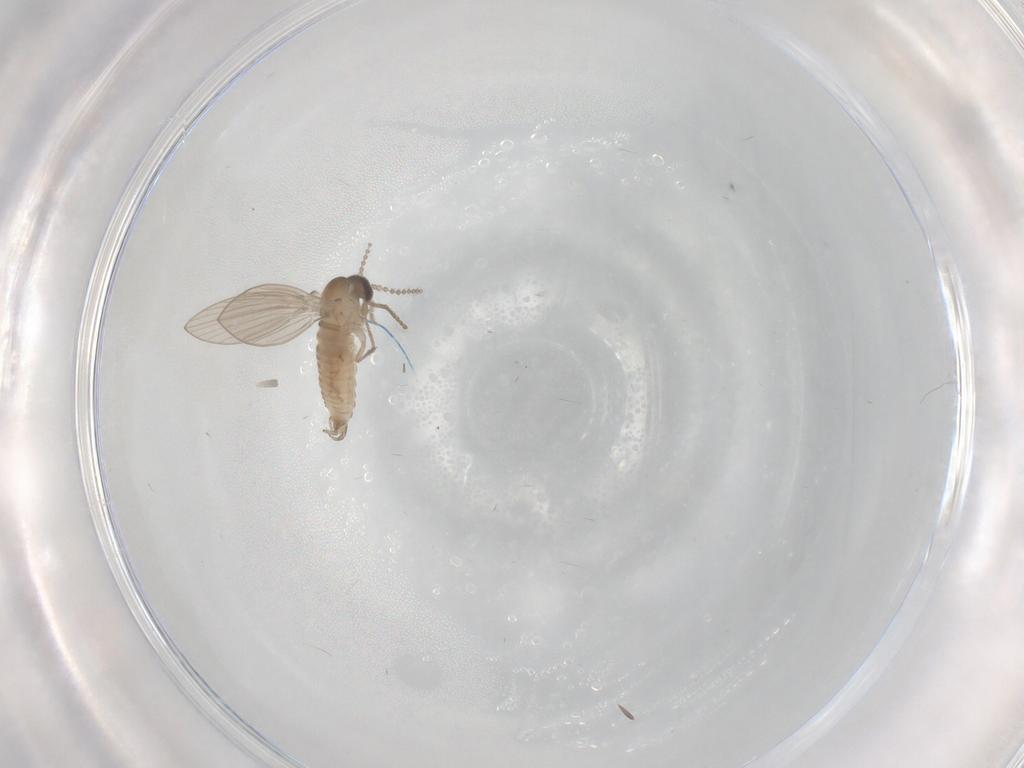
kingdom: Animalia
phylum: Arthropoda
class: Insecta
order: Diptera
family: Psychodidae
